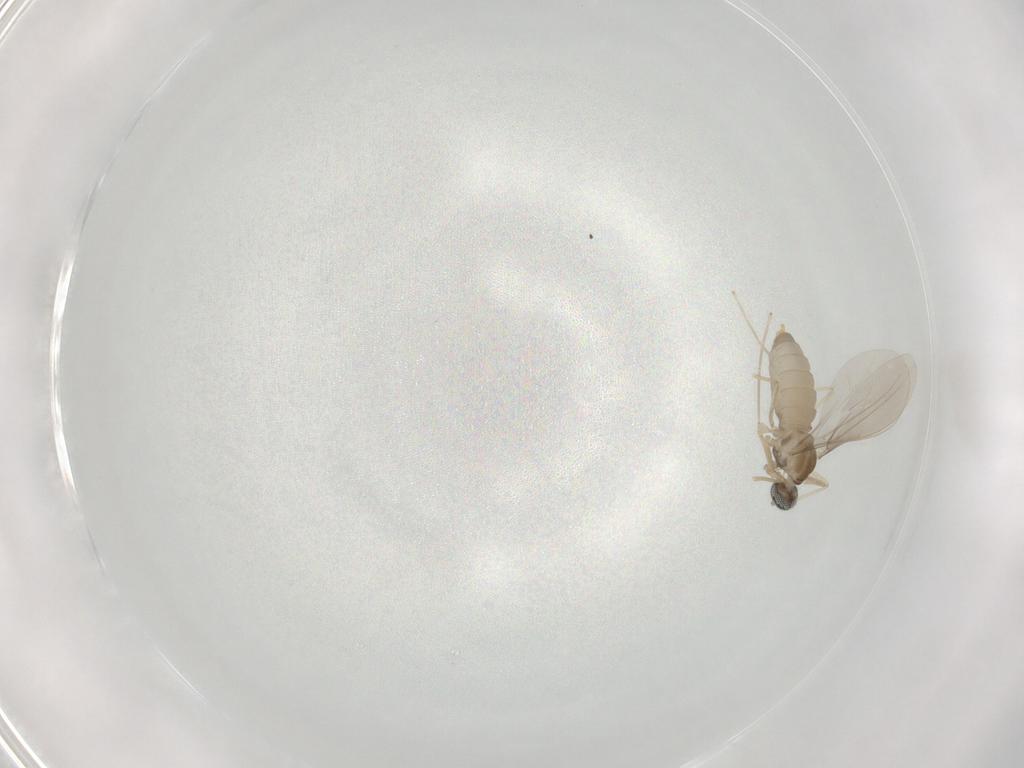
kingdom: Animalia
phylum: Arthropoda
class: Insecta
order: Diptera
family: Cecidomyiidae
